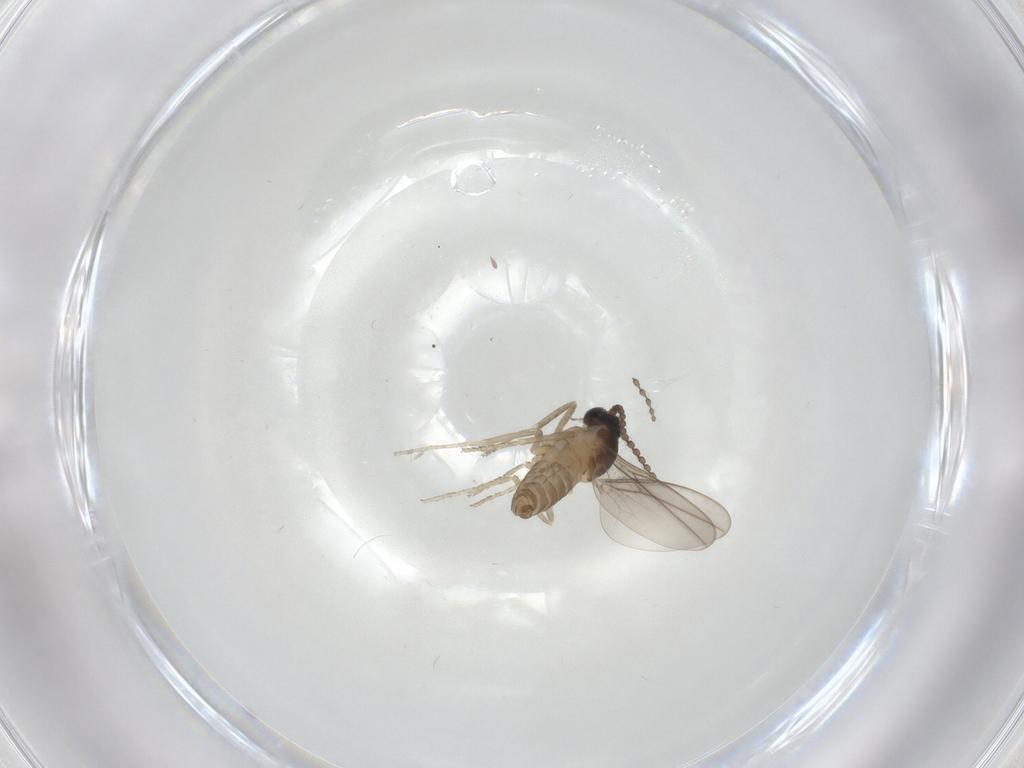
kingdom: Animalia
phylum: Arthropoda
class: Insecta
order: Diptera
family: Cecidomyiidae
